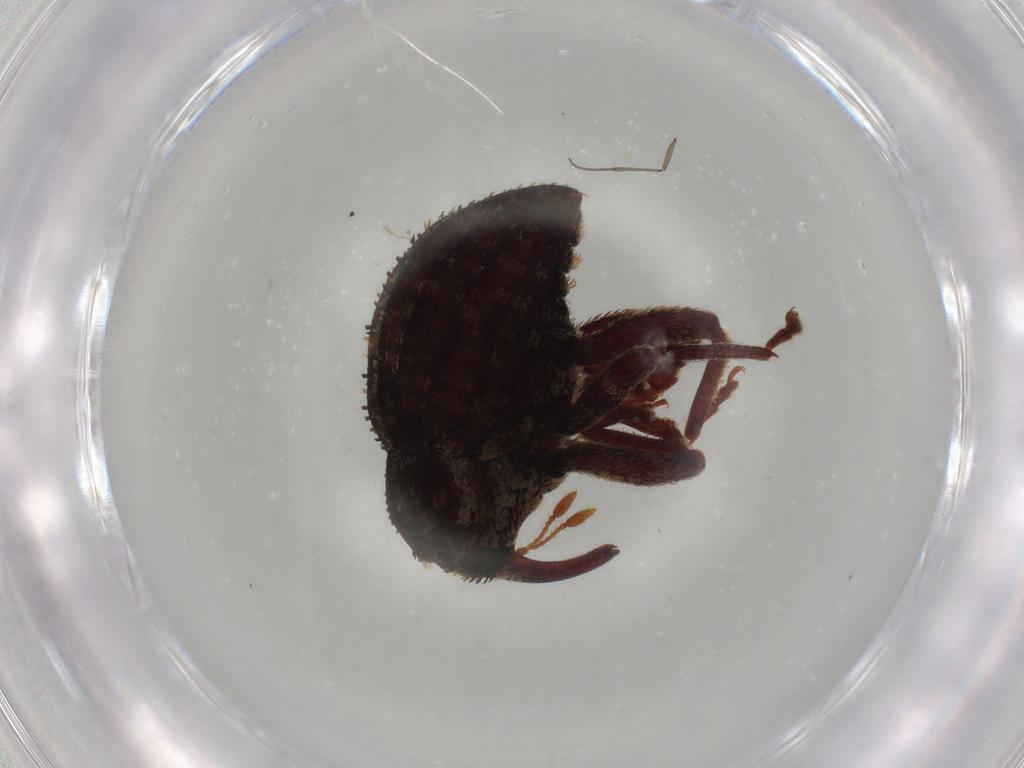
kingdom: Animalia
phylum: Arthropoda
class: Insecta
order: Coleoptera
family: Curculionidae
